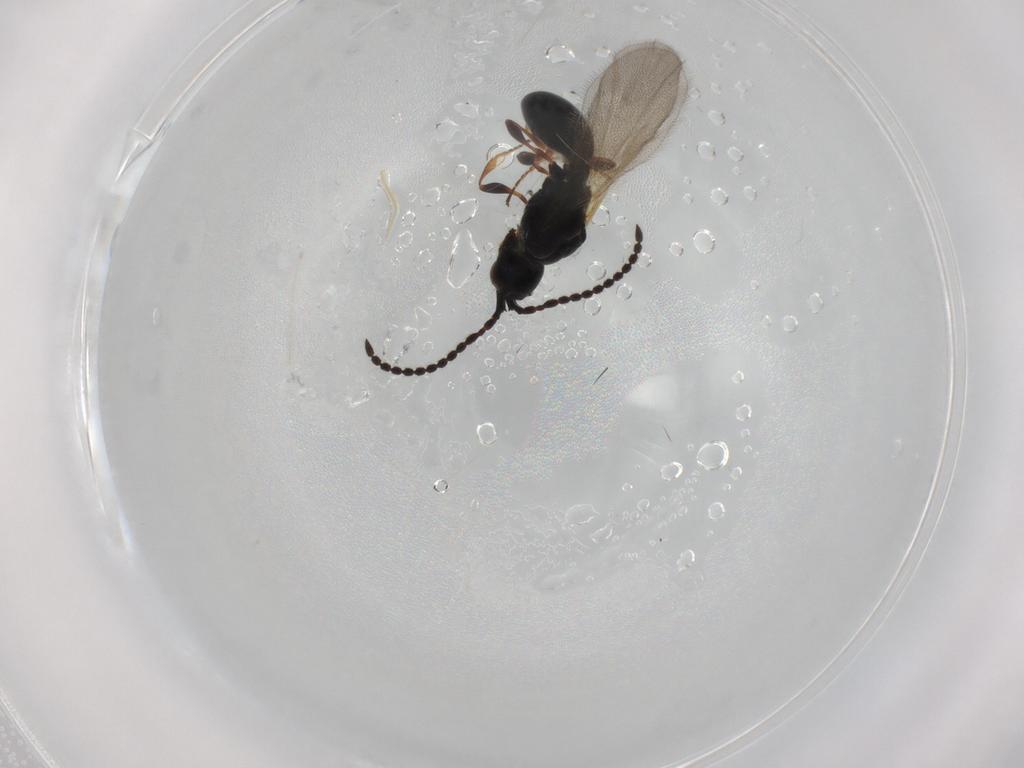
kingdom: Animalia
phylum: Arthropoda
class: Insecta
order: Hymenoptera
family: Diapriidae
